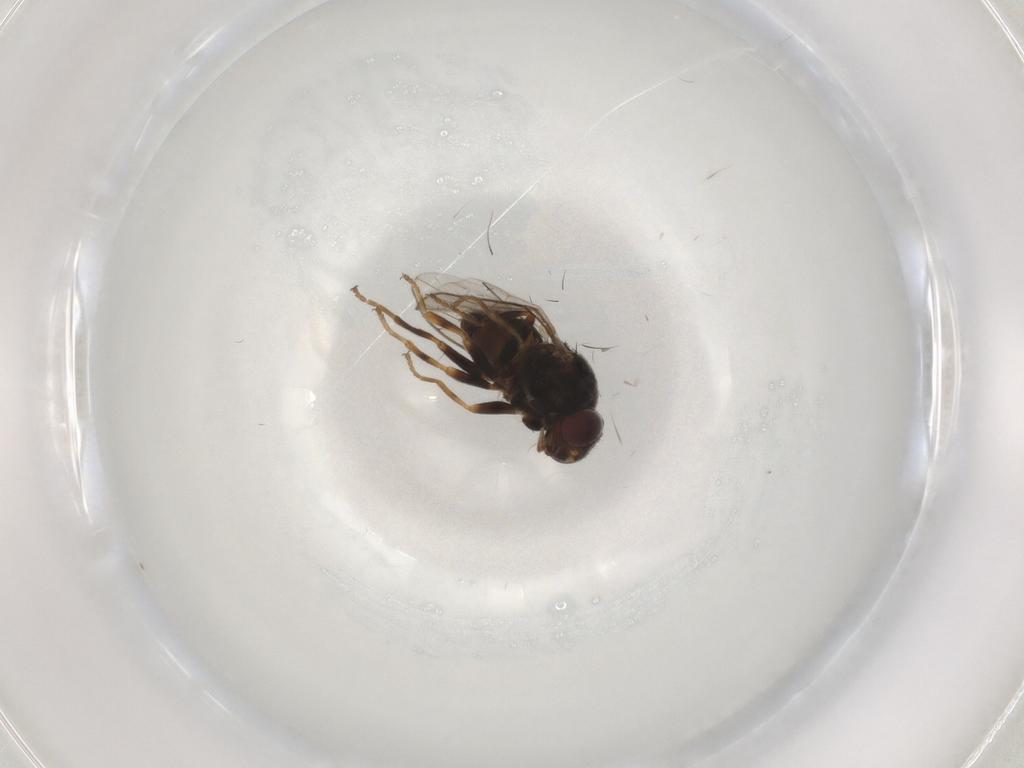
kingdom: Animalia
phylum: Arthropoda
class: Insecta
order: Diptera
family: Chloropidae
